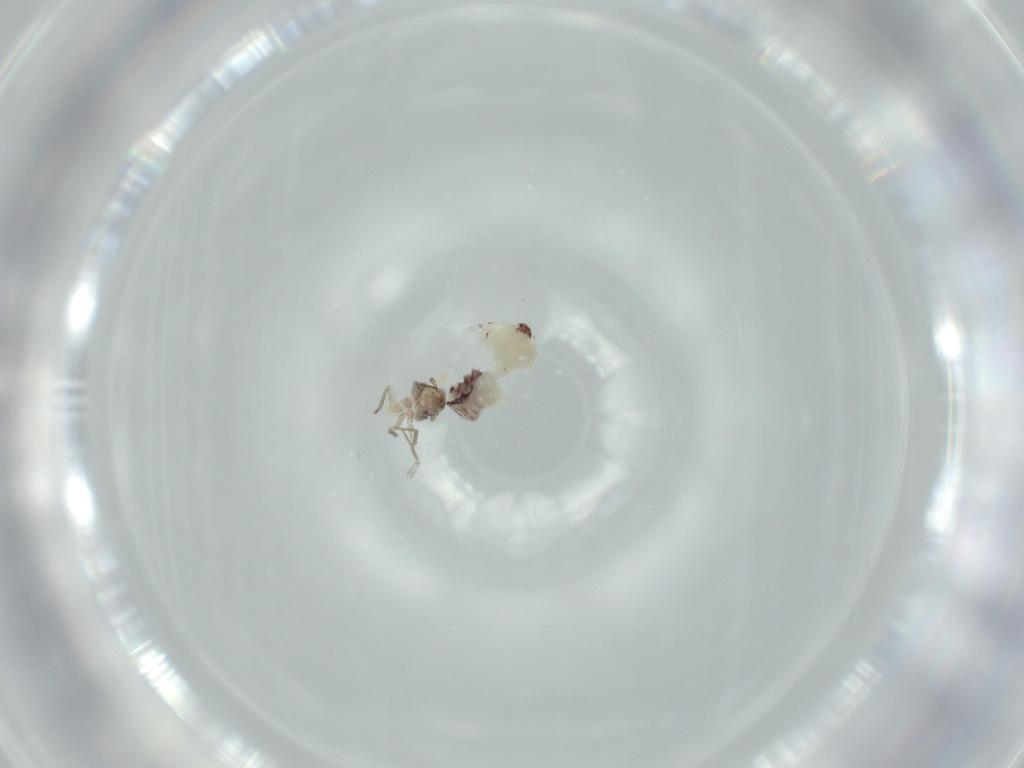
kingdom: Animalia
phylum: Arthropoda
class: Insecta
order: Psocodea
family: Lepidopsocidae
